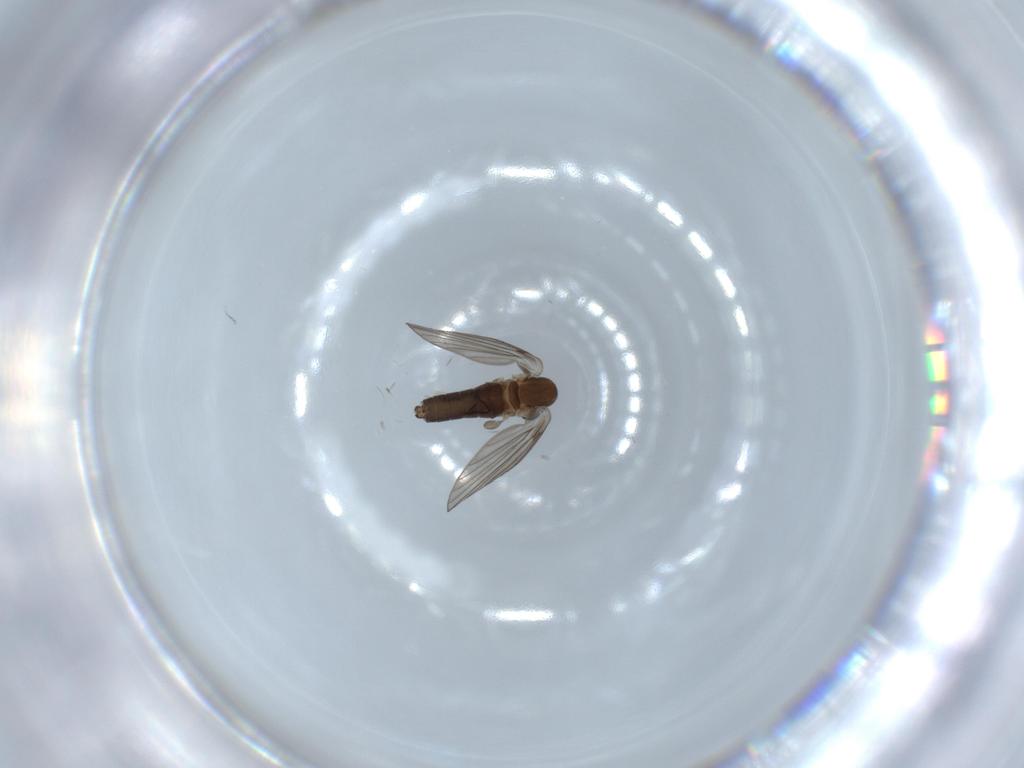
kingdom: Animalia
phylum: Arthropoda
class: Insecta
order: Diptera
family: Psychodidae
